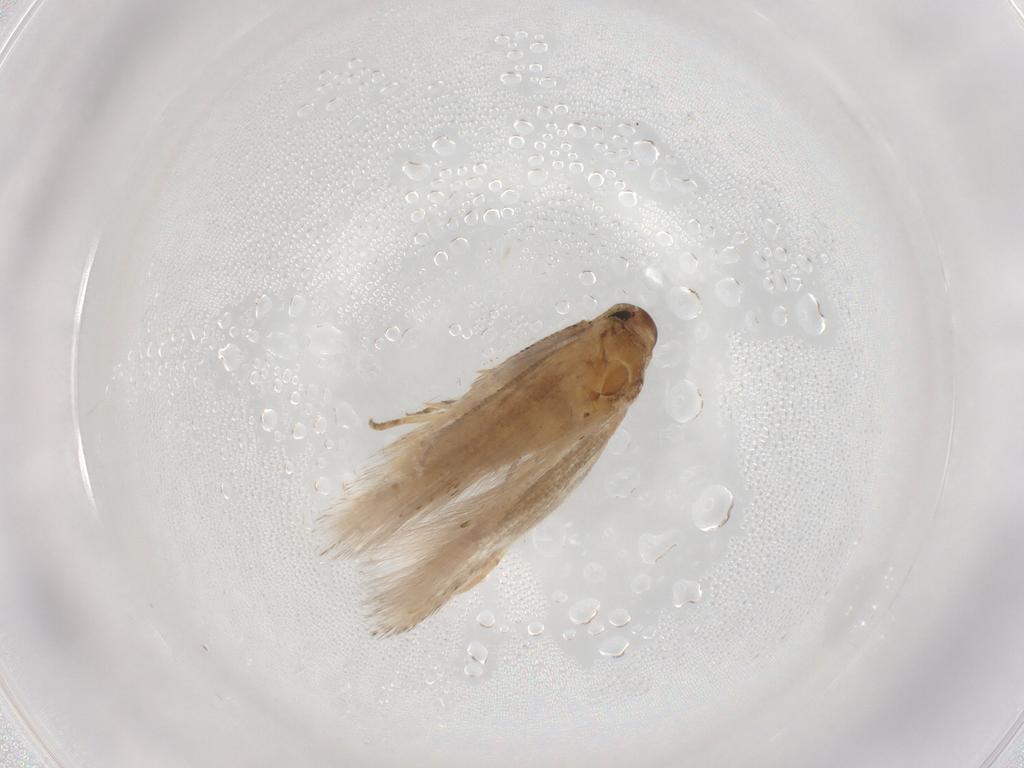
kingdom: Animalia
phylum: Arthropoda
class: Insecta
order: Lepidoptera
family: Gelechiidae
